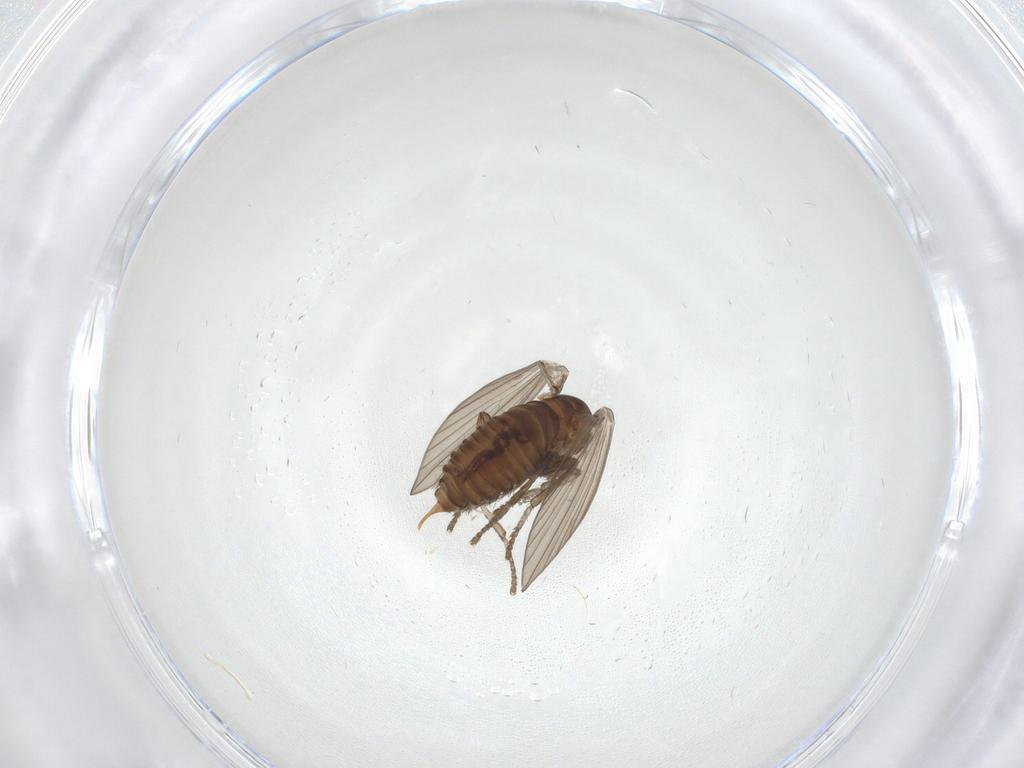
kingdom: Animalia
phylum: Arthropoda
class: Insecta
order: Diptera
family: Psychodidae
